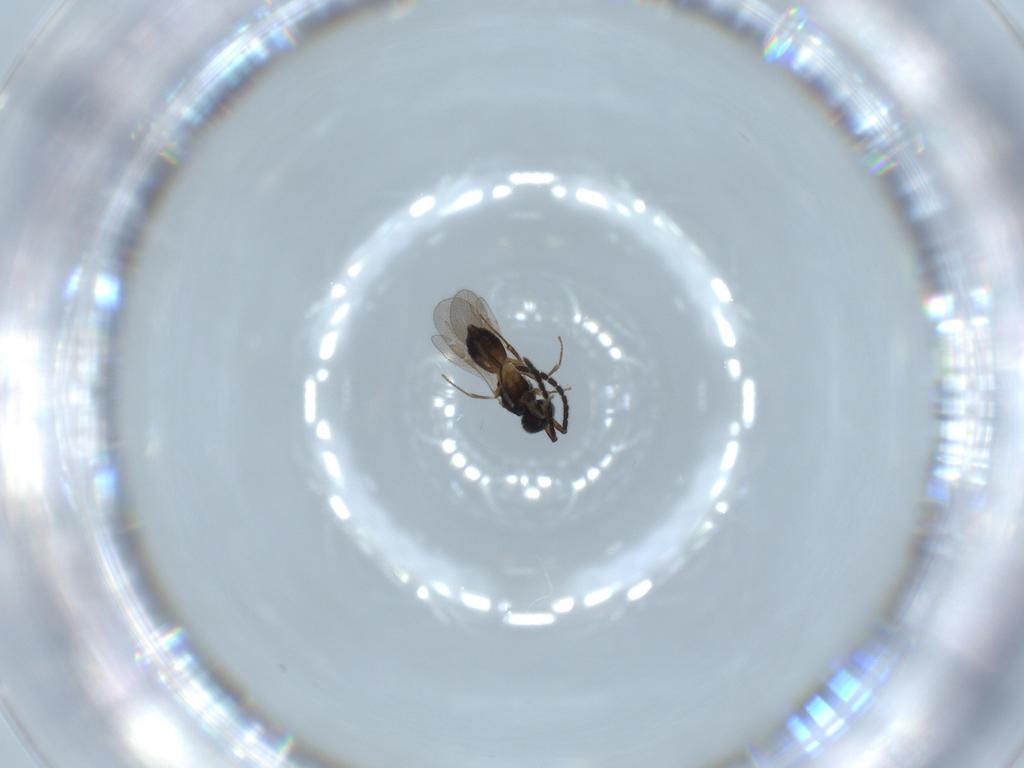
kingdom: Animalia
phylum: Arthropoda
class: Insecta
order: Hymenoptera
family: Megaspilidae
